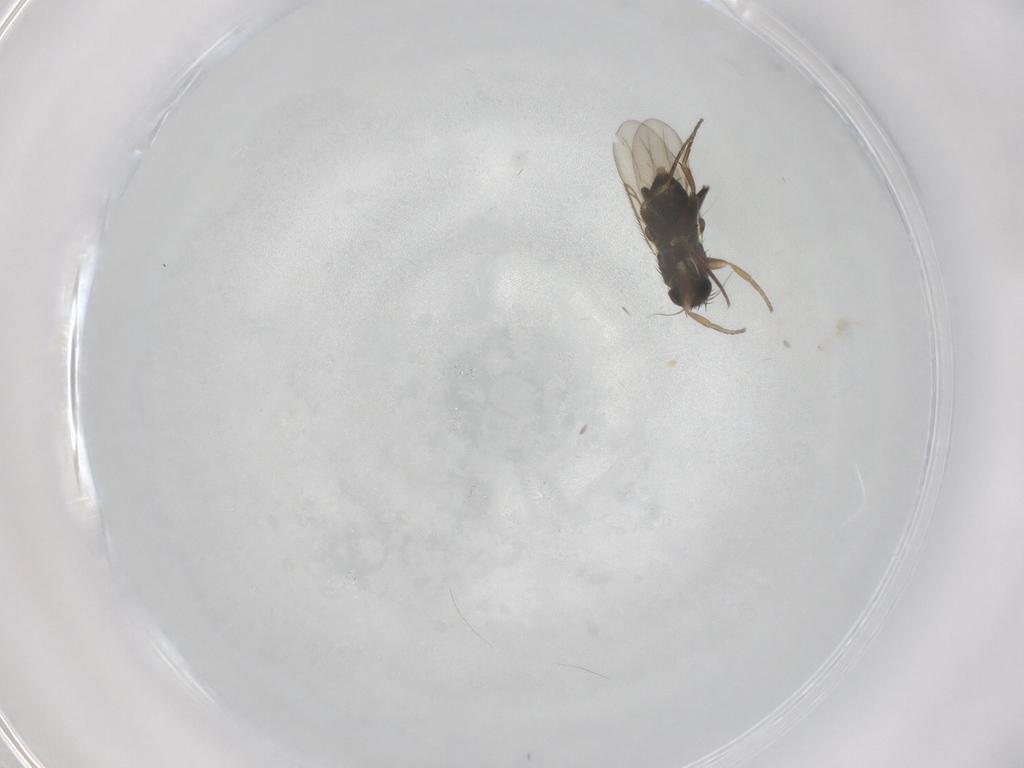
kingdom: Animalia
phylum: Arthropoda
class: Insecta
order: Diptera
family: Phoridae
